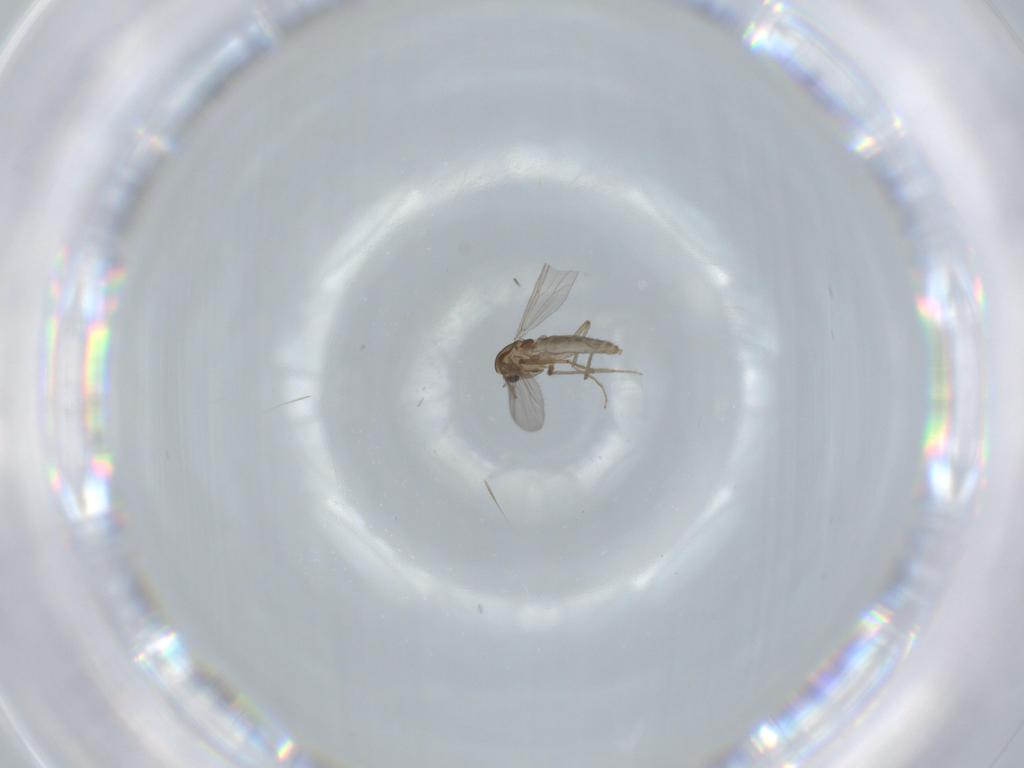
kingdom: Animalia
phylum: Arthropoda
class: Insecta
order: Diptera
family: Chironomidae
